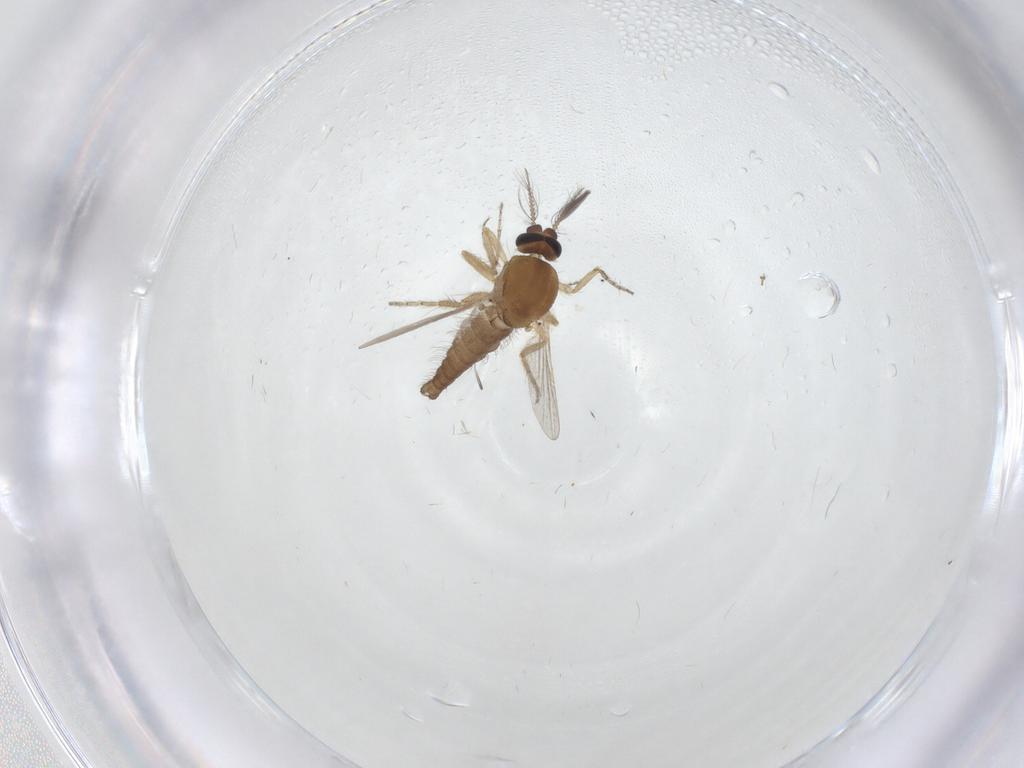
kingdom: Animalia
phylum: Arthropoda
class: Insecta
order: Diptera
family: Ceratopogonidae
